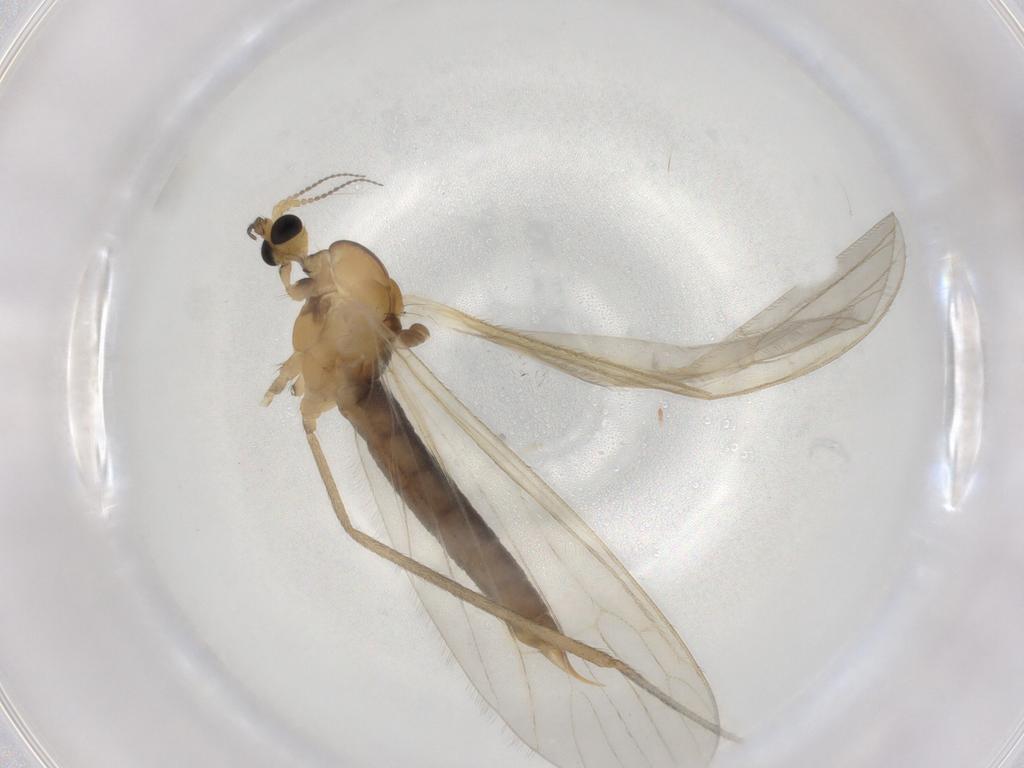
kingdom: Animalia
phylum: Arthropoda
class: Insecta
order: Diptera
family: Limoniidae
